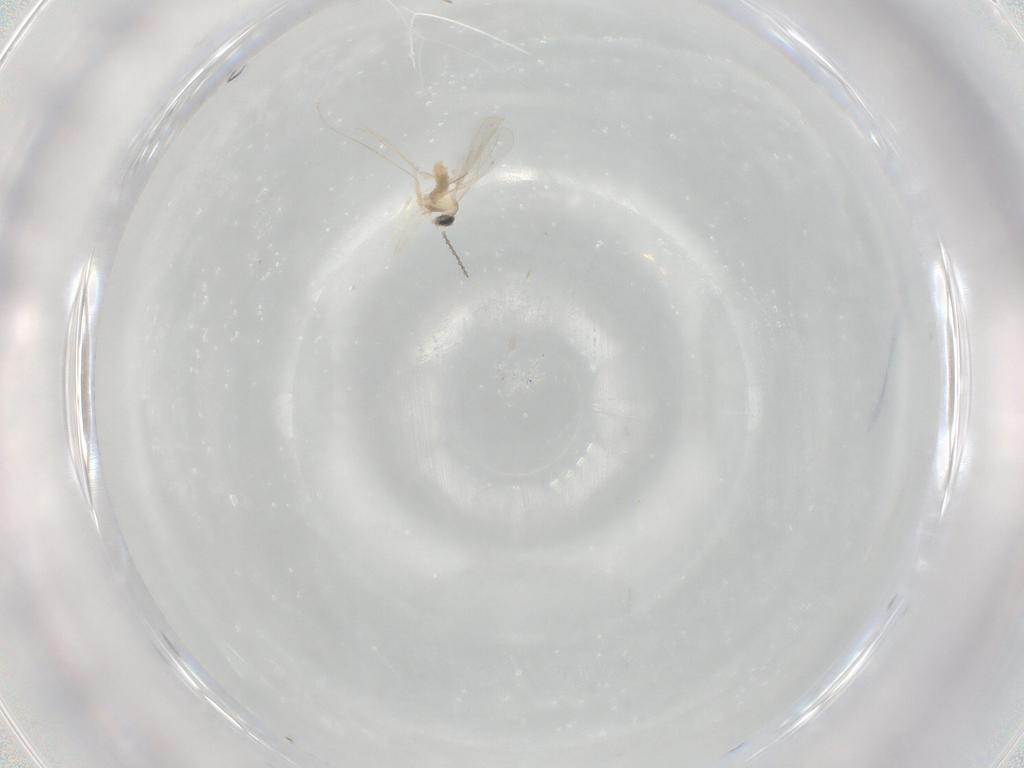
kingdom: Animalia
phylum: Arthropoda
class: Insecta
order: Diptera
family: Cecidomyiidae
